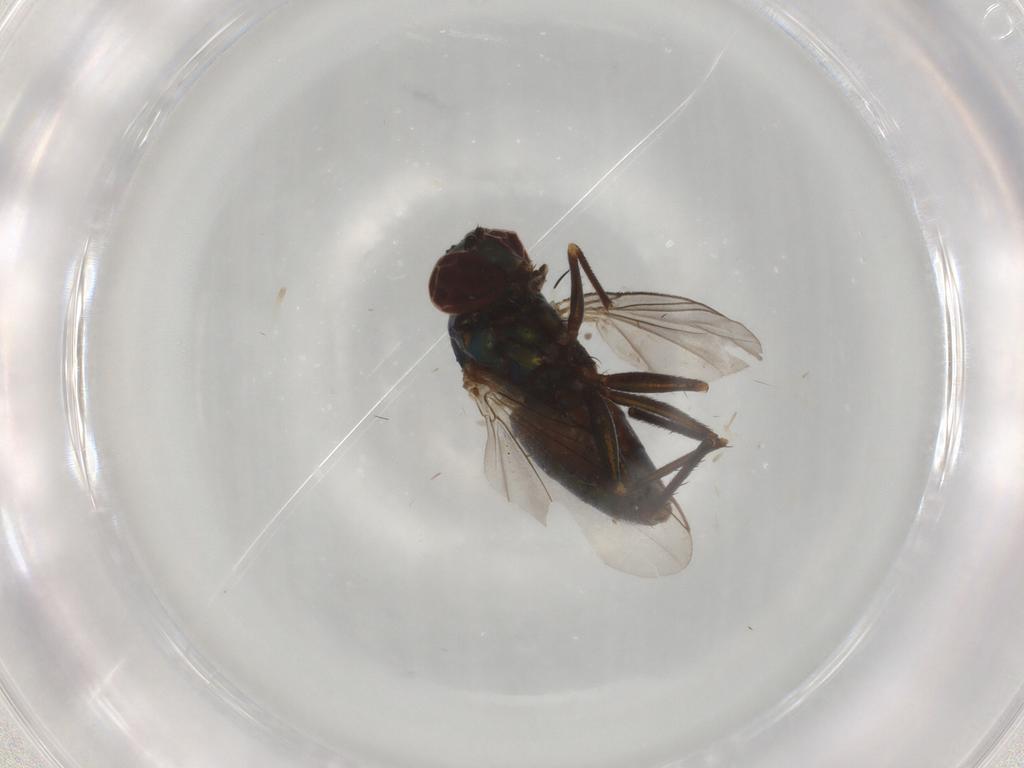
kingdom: Animalia
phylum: Arthropoda
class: Insecta
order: Diptera
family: Dolichopodidae
